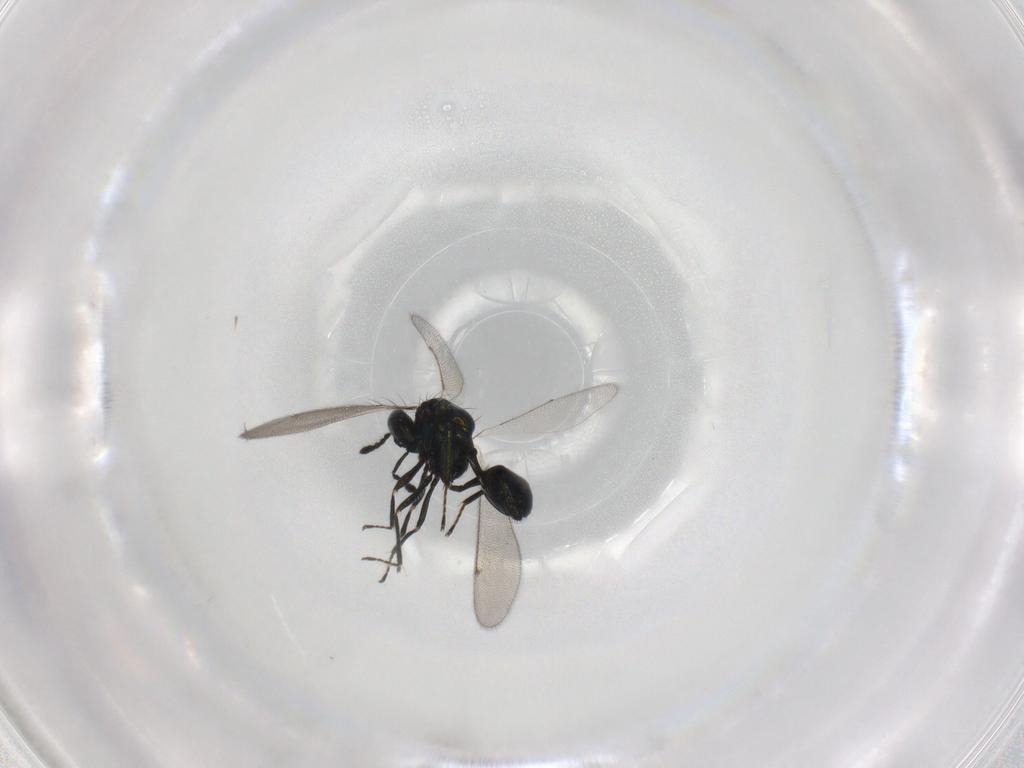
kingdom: Animalia
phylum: Arthropoda
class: Insecta
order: Hymenoptera
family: Eulophidae
